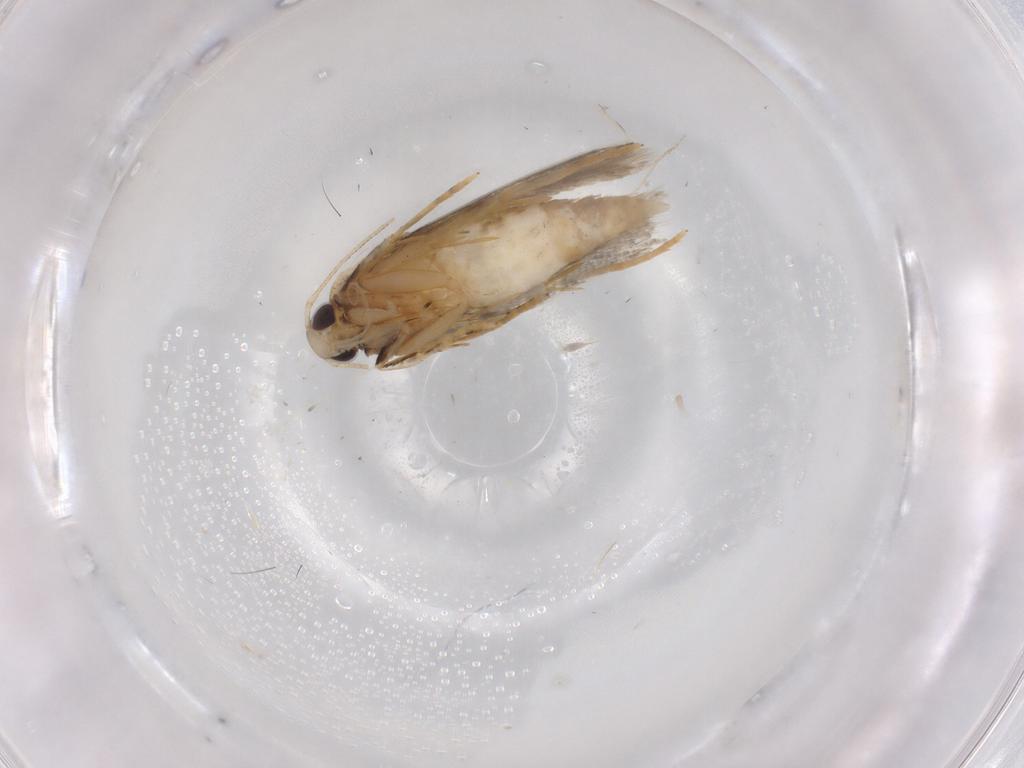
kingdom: Animalia
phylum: Arthropoda
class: Insecta
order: Lepidoptera
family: Autostichidae
